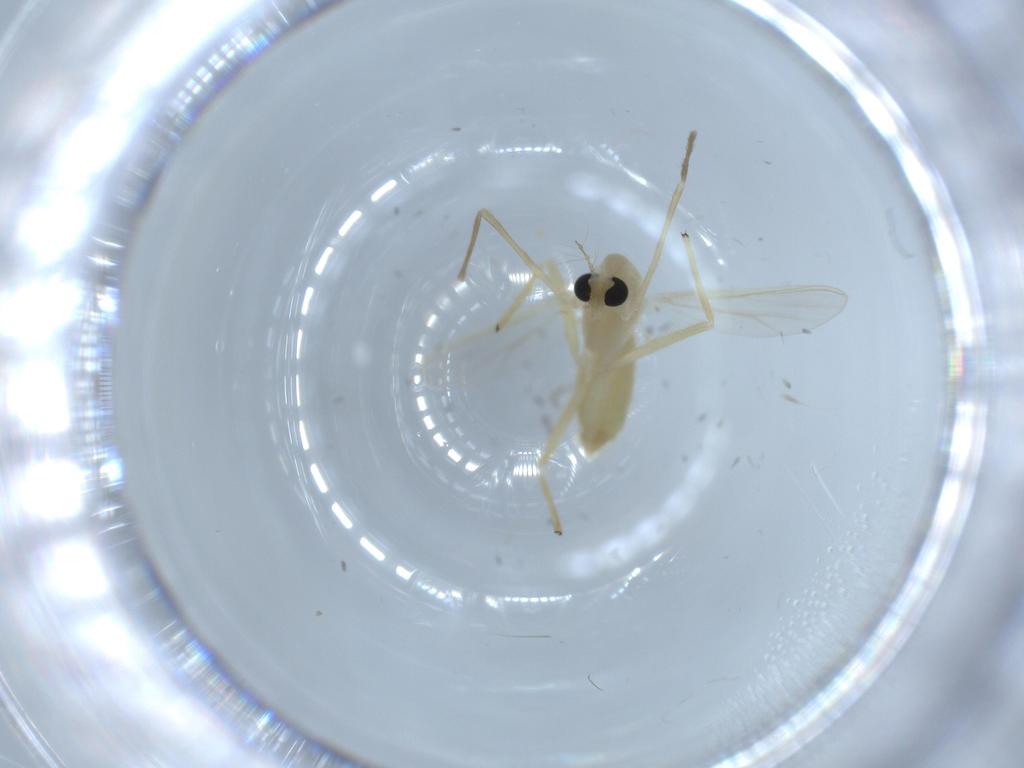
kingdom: Animalia
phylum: Arthropoda
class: Insecta
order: Diptera
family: Chironomidae
